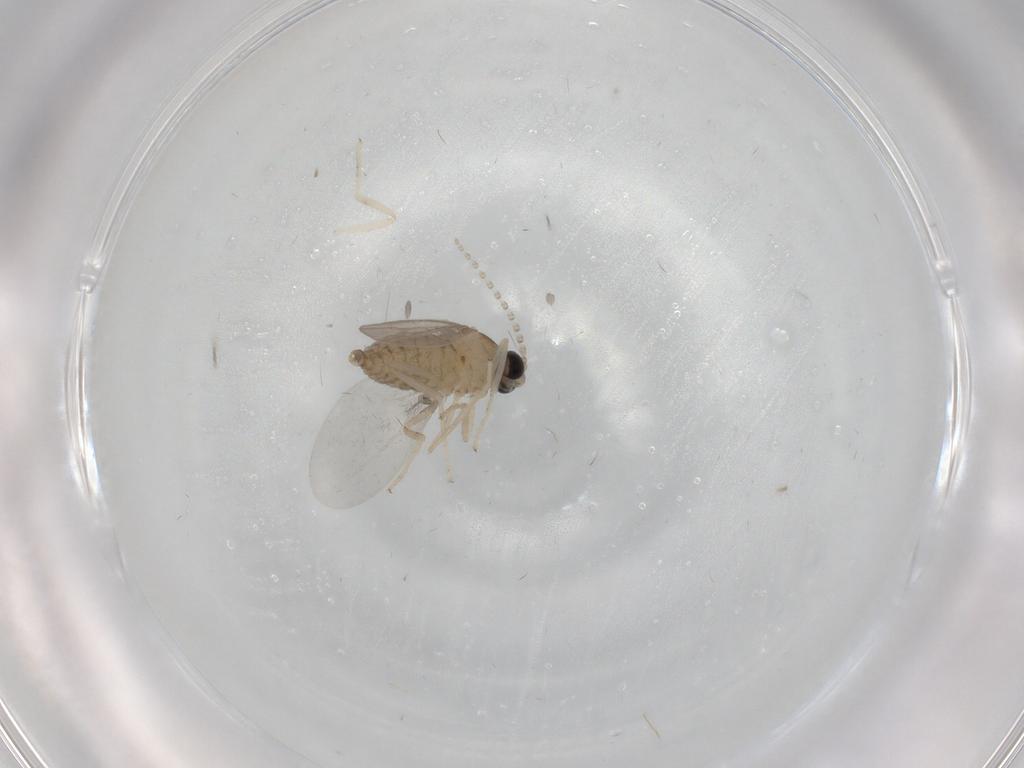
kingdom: Animalia
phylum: Arthropoda
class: Insecta
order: Diptera
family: Cecidomyiidae
